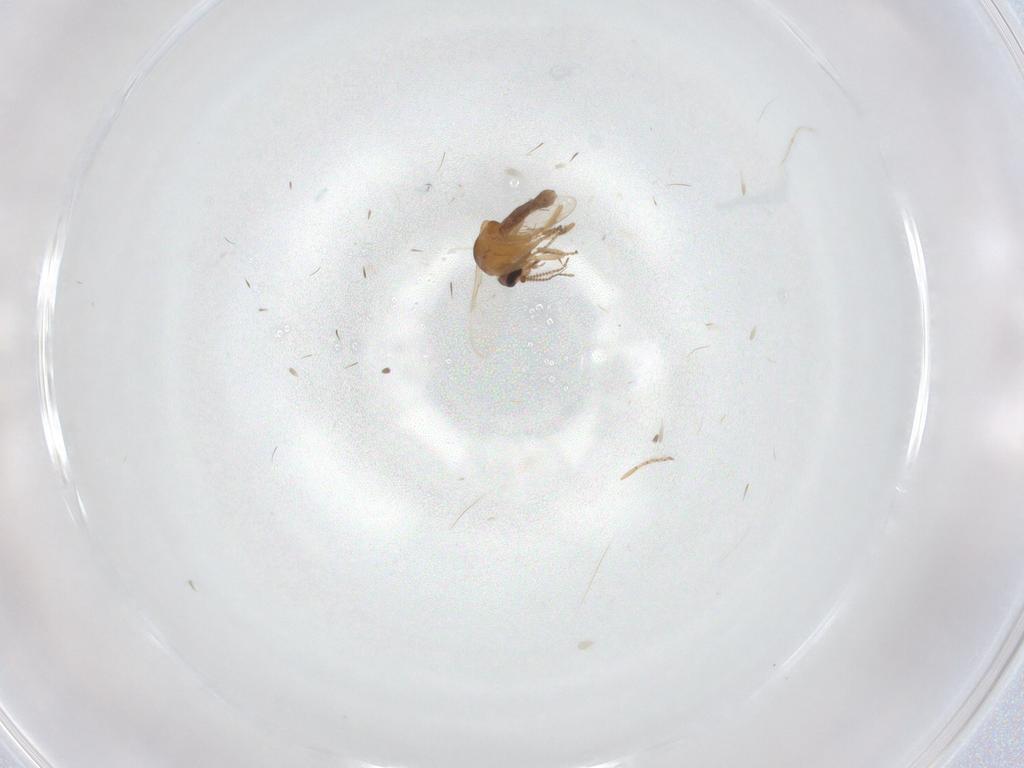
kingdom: Animalia
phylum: Arthropoda
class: Insecta
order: Diptera
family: Ceratopogonidae
